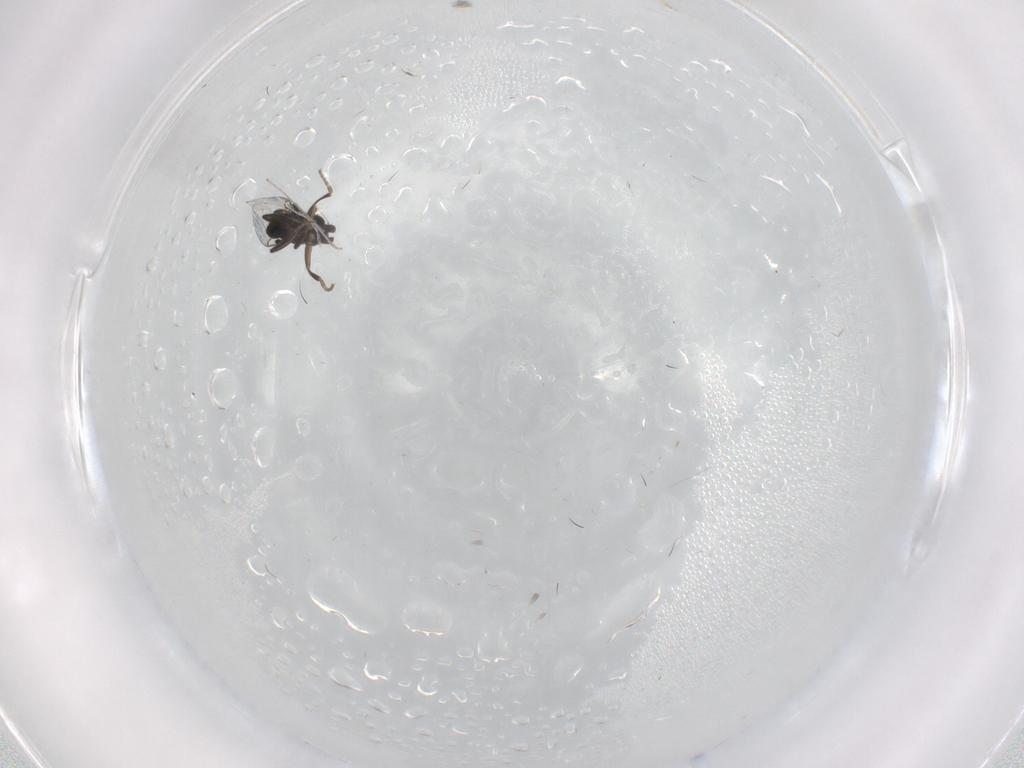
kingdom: Animalia
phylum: Arthropoda
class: Insecta
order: Diptera
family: Cecidomyiidae
